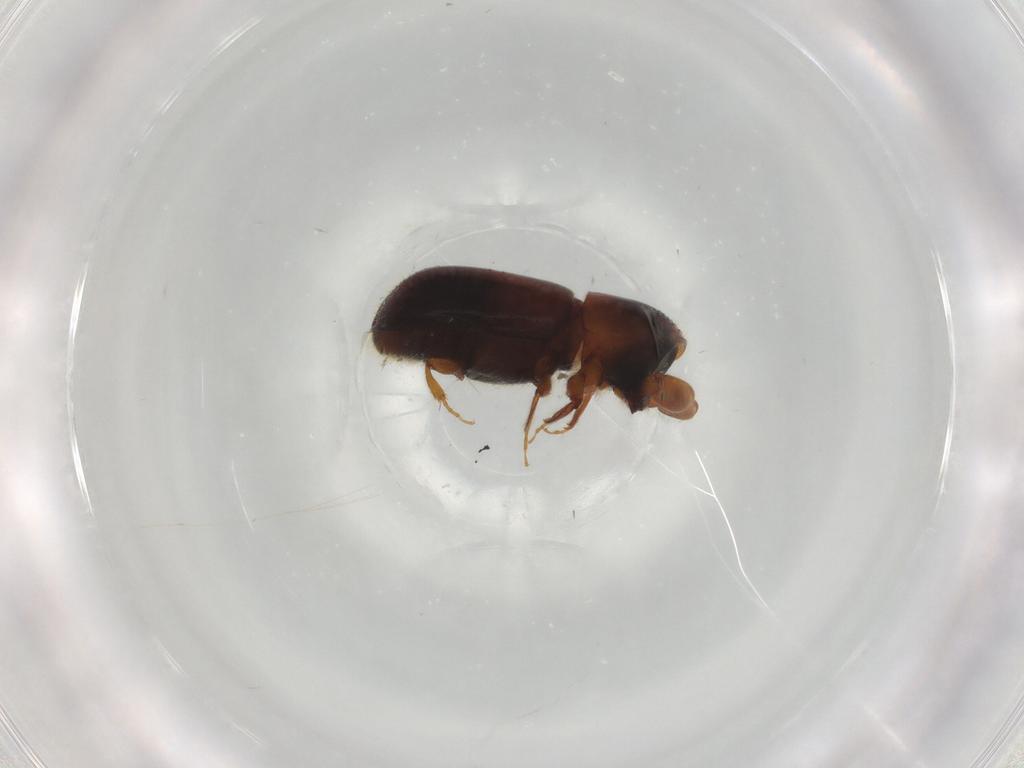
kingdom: Animalia
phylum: Arthropoda
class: Insecta
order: Coleoptera
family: Curculionidae
